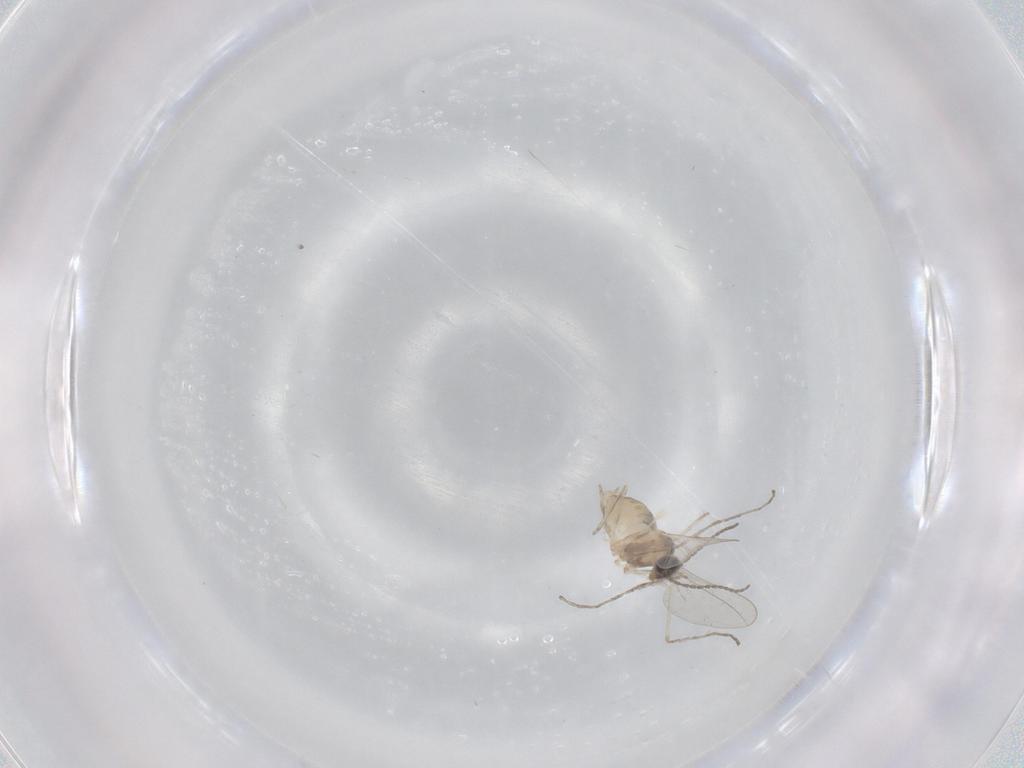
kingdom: Animalia
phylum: Arthropoda
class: Insecta
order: Diptera
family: Cecidomyiidae
